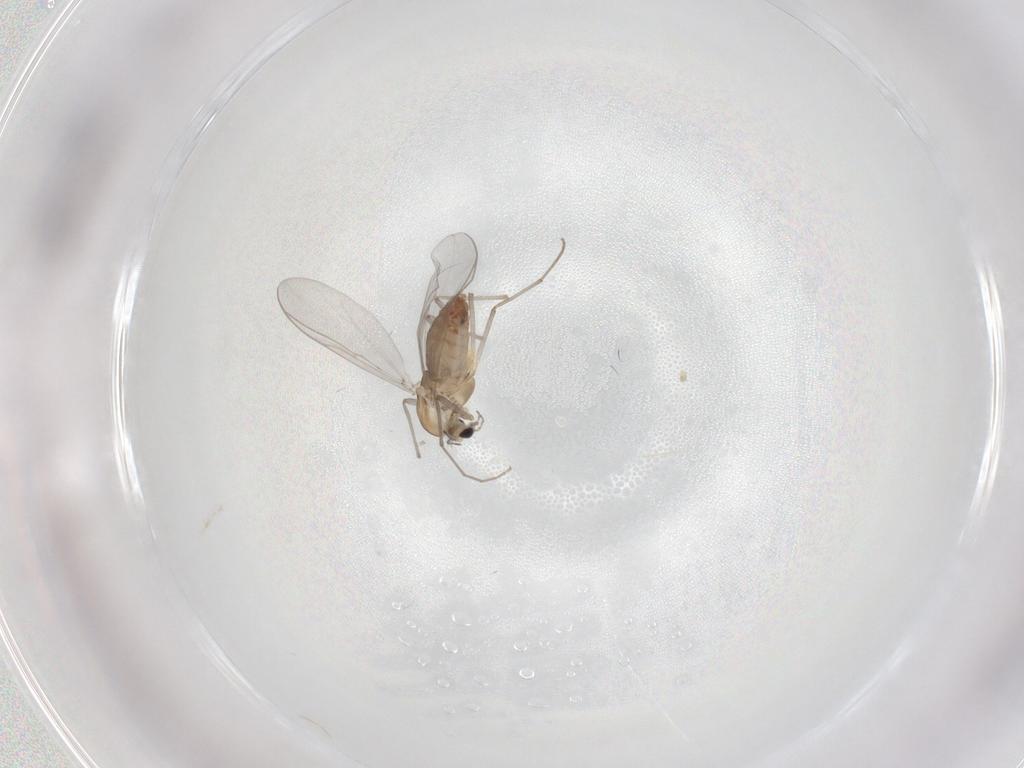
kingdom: Animalia
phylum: Arthropoda
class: Insecta
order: Diptera
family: Chironomidae
